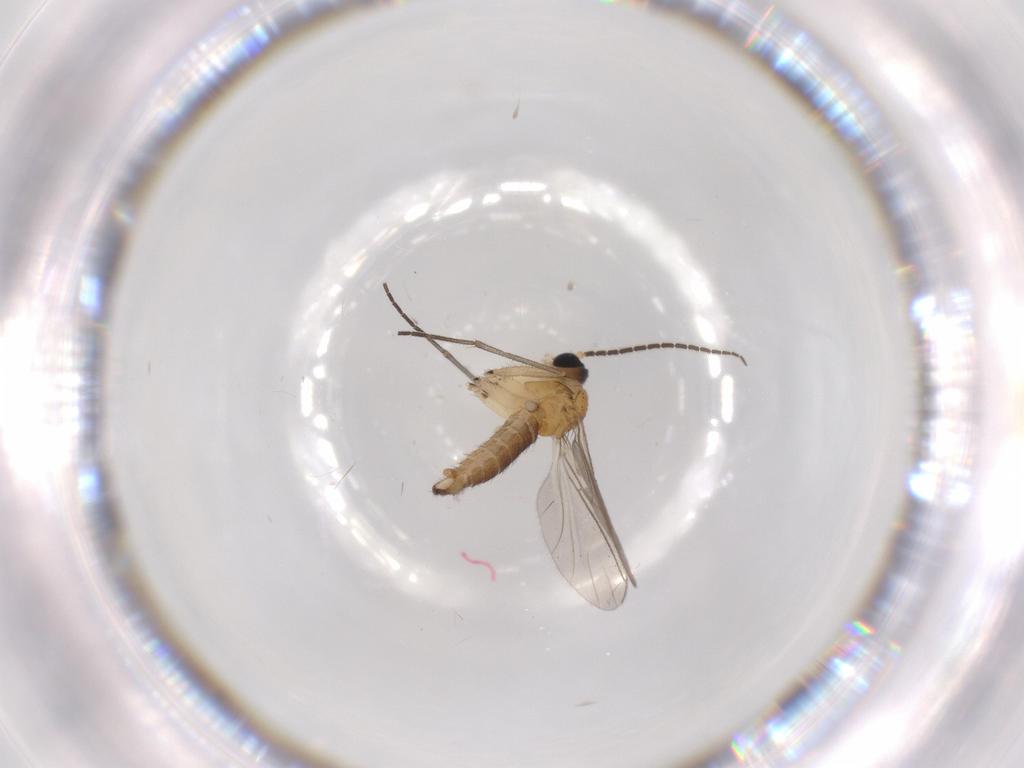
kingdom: Animalia
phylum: Arthropoda
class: Insecta
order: Diptera
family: Sciaridae
